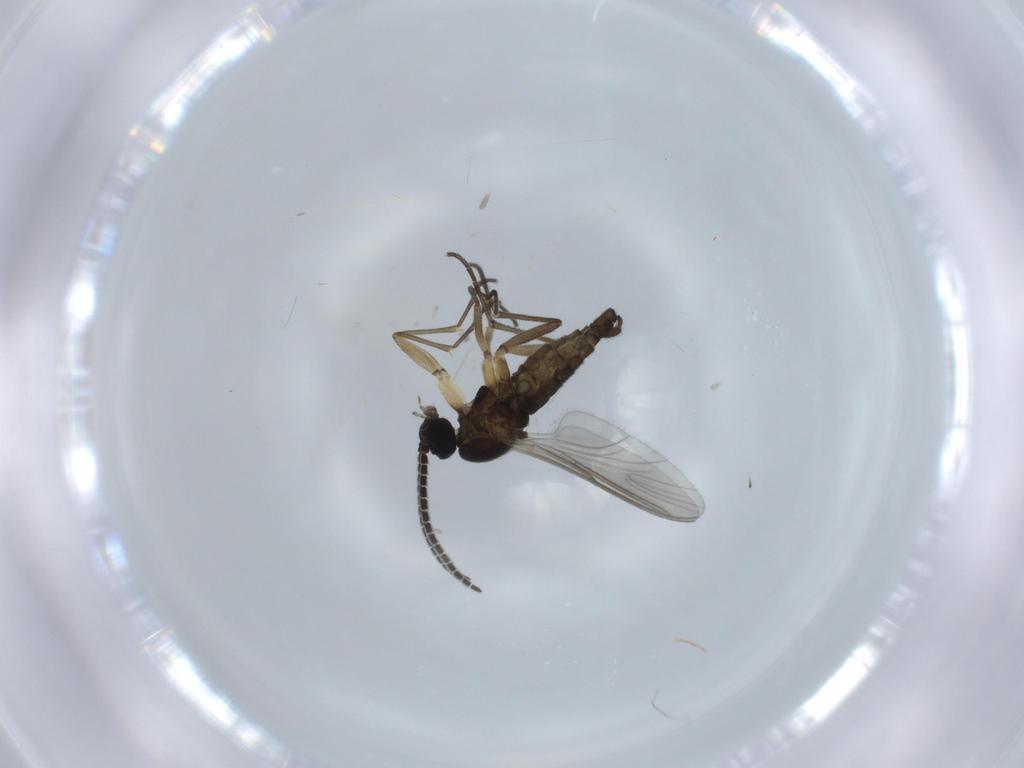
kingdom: Animalia
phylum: Arthropoda
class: Insecta
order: Diptera
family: Sciaridae
